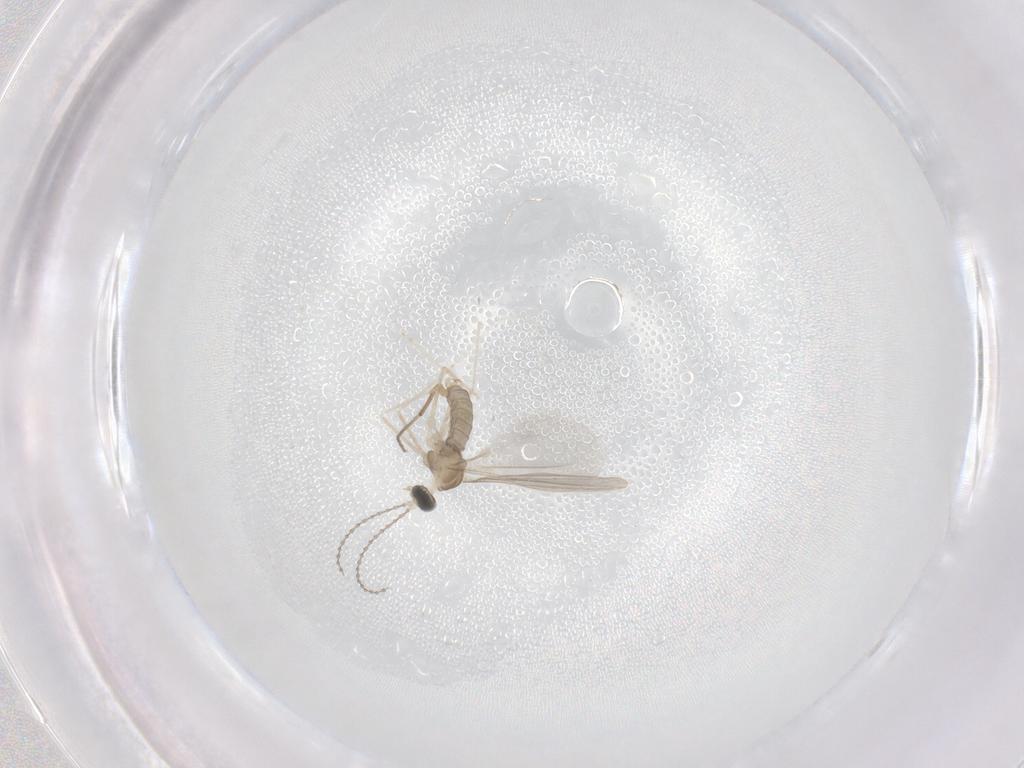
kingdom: Animalia
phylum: Arthropoda
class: Insecta
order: Diptera
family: Cecidomyiidae
